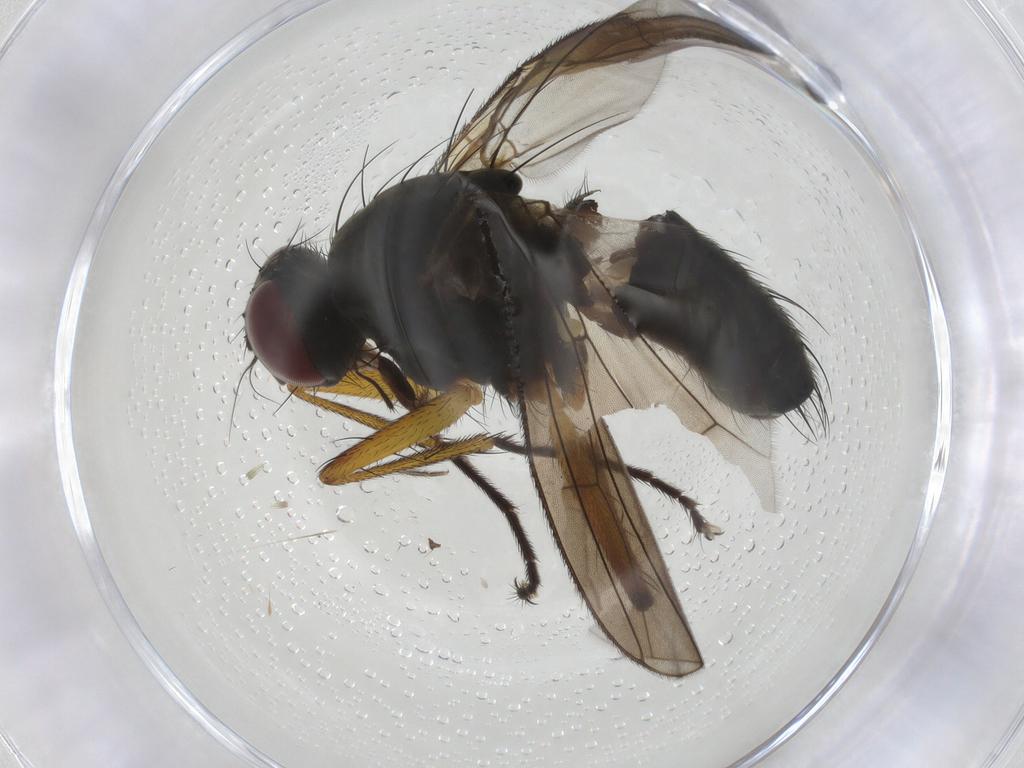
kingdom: Animalia
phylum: Arthropoda
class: Insecta
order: Diptera
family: Muscidae
